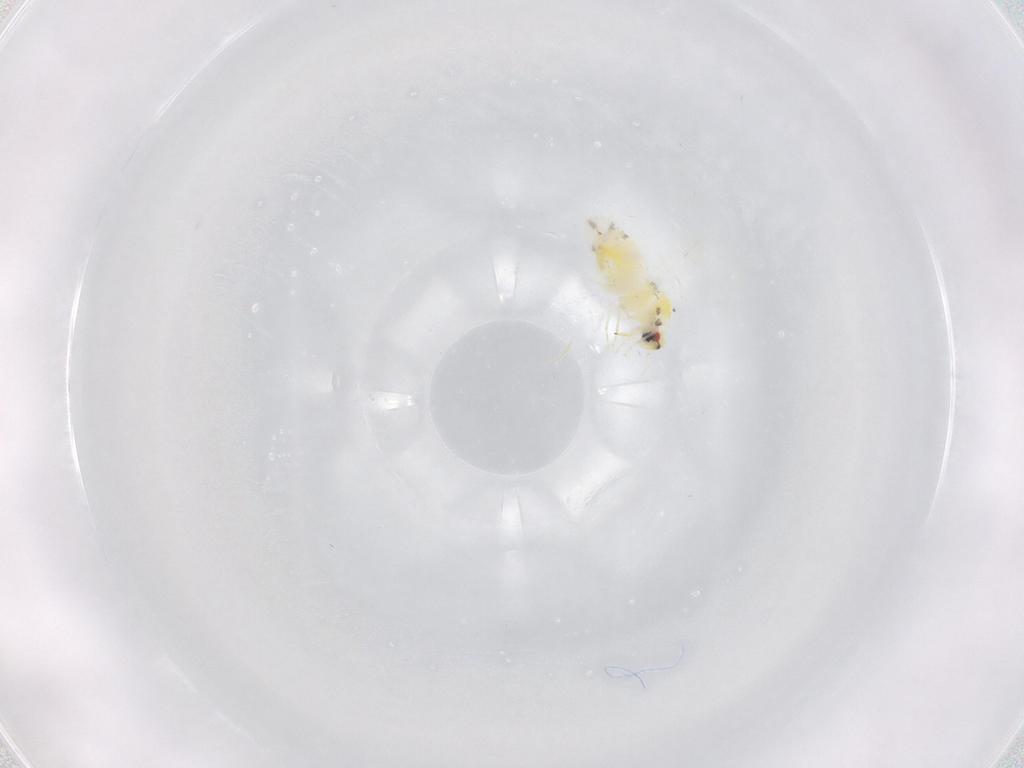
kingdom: Animalia
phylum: Arthropoda
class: Insecta
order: Hemiptera
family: Aleyrodidae
